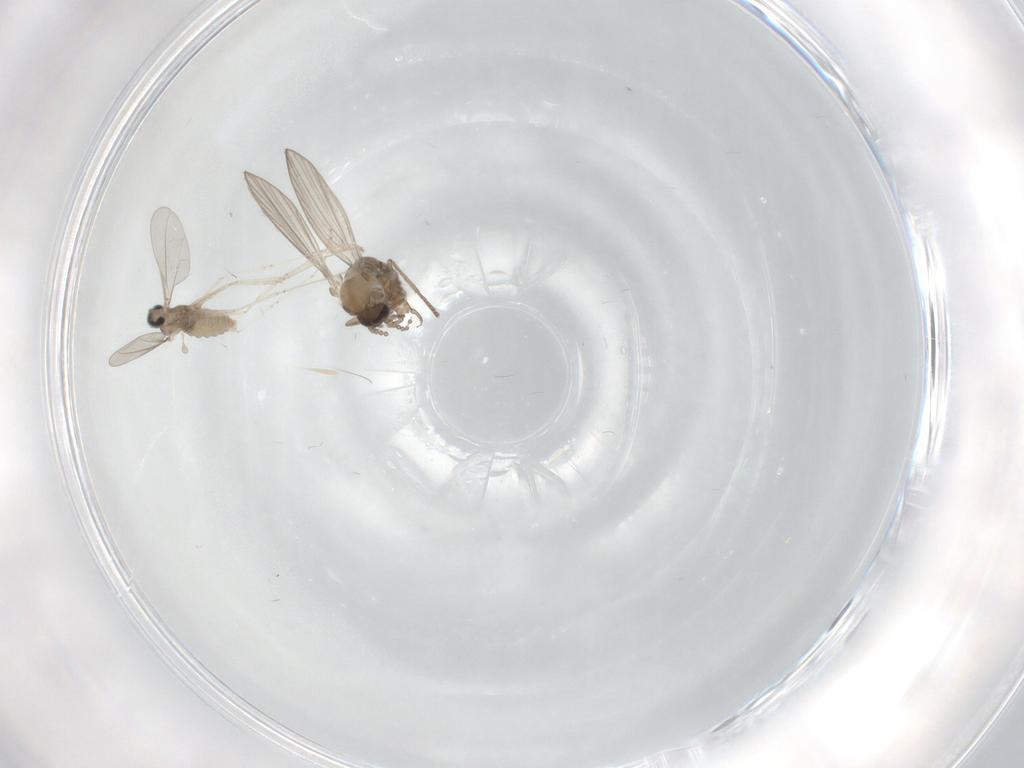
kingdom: Animalia
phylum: Arthropoda
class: Insecta
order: Diptera
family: Psychodidae
